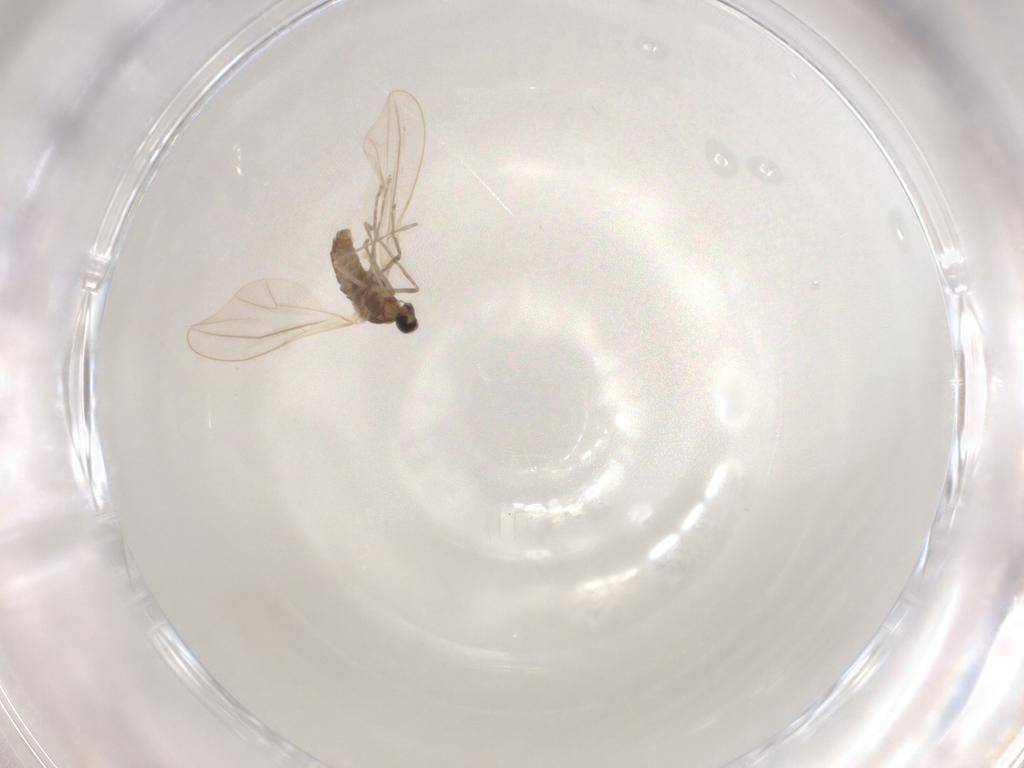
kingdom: Animalia
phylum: Arthropoda
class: Insecta
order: Diptera
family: Cecidomyiidae
